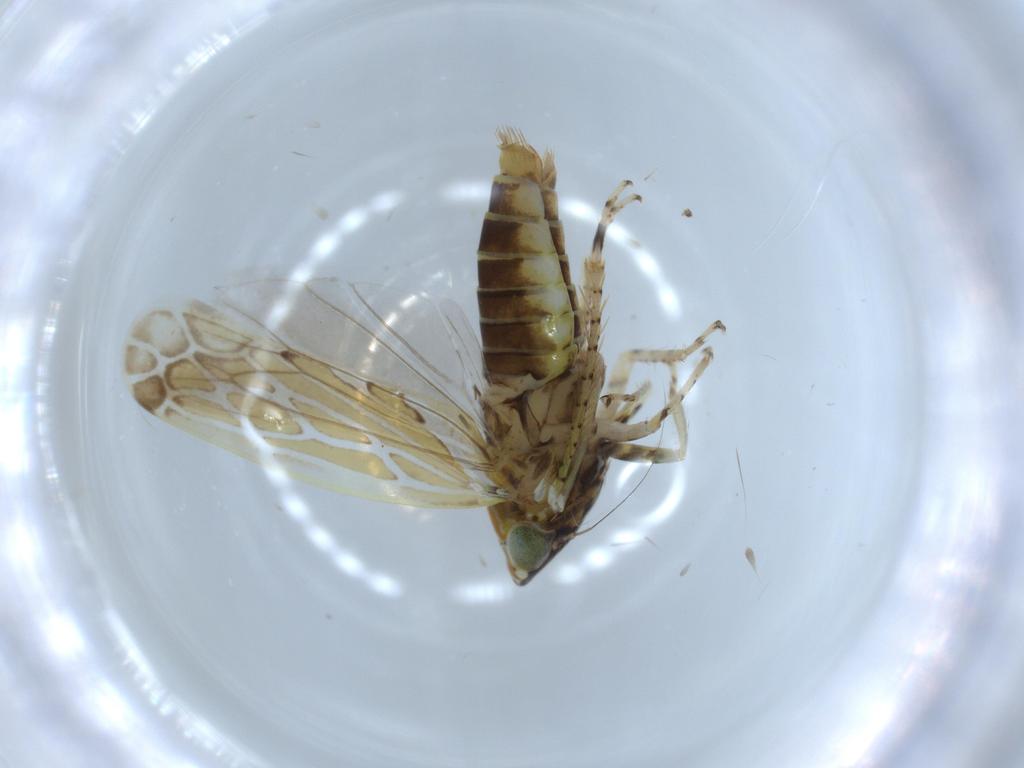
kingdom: Animalia
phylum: Arthropoda
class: Insecta
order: Hemiptera
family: Cicadellidae
